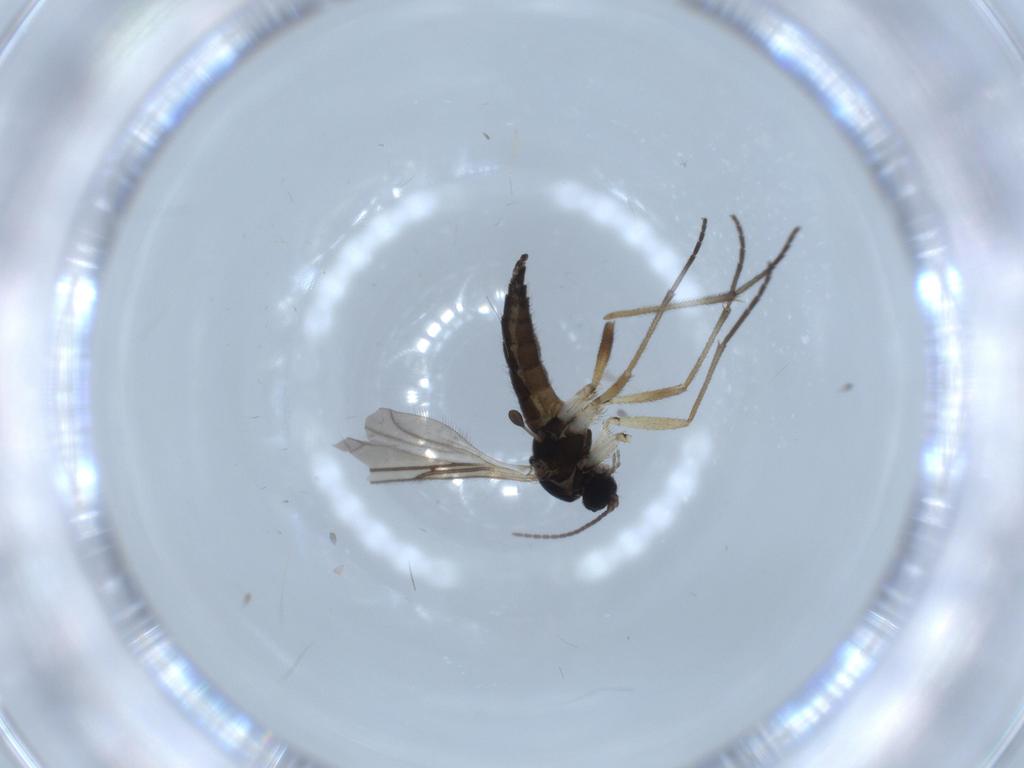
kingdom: Animalia
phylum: Arthropoda
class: Insecta
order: Diptera
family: Sciaridae
